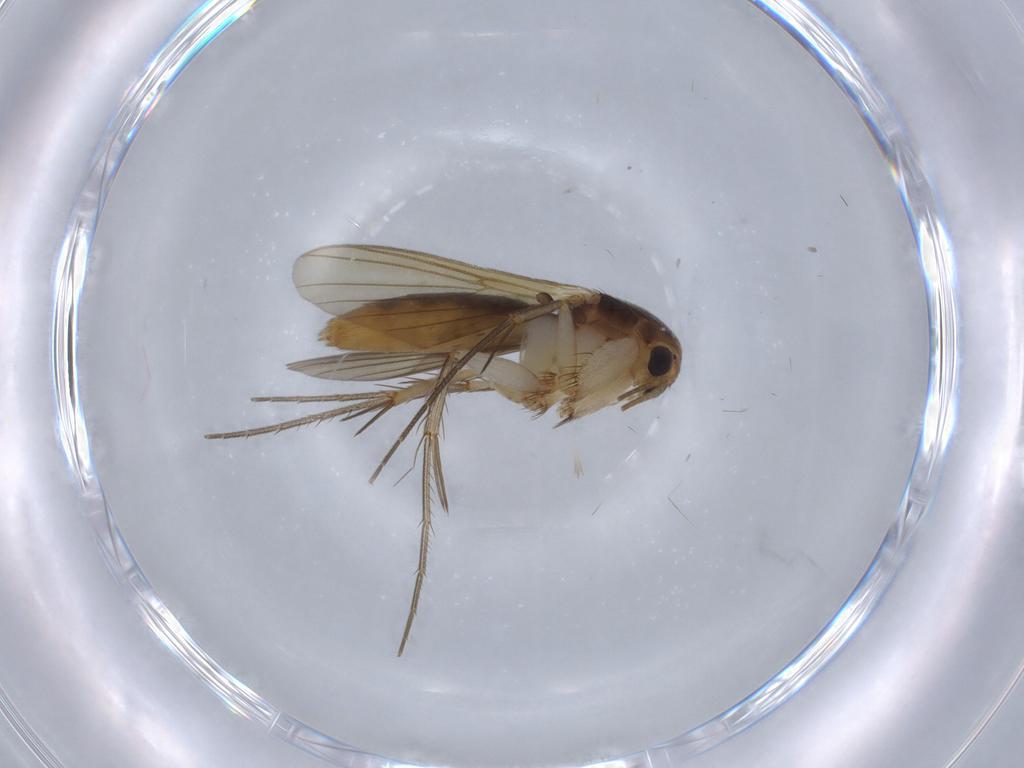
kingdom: Animalia
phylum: Arthropoda
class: Insecta
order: Diptera
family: Mycetophilidae
